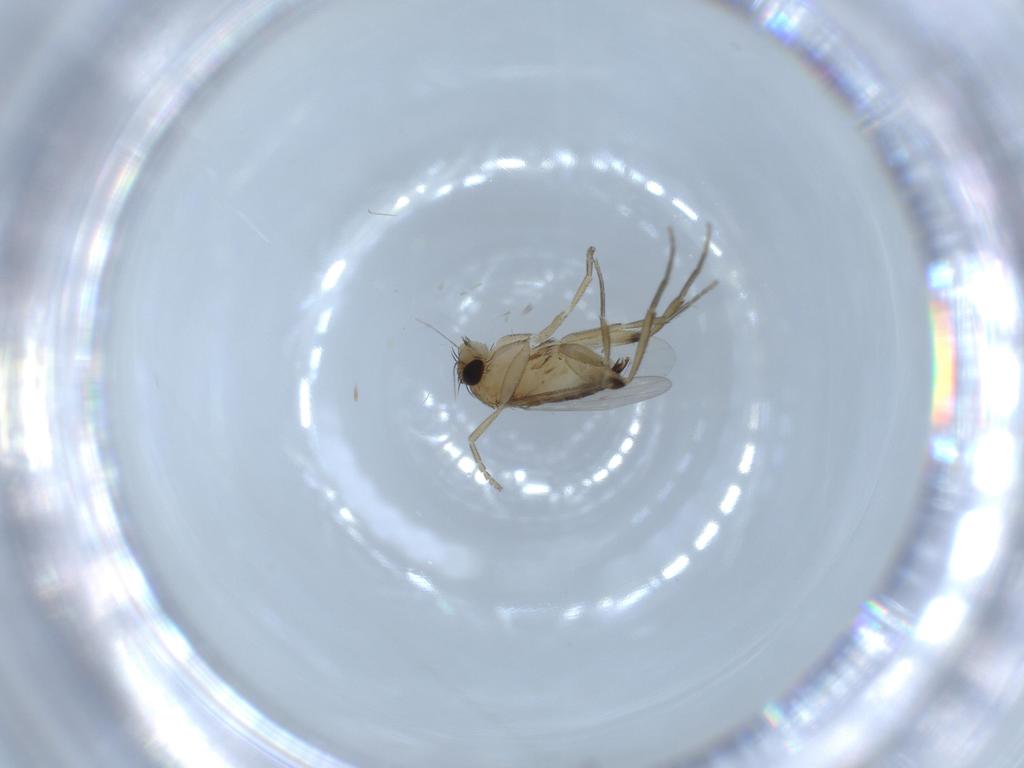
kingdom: Animalia
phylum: Arthropoda
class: Insecta
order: Diptera
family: Phoridae
